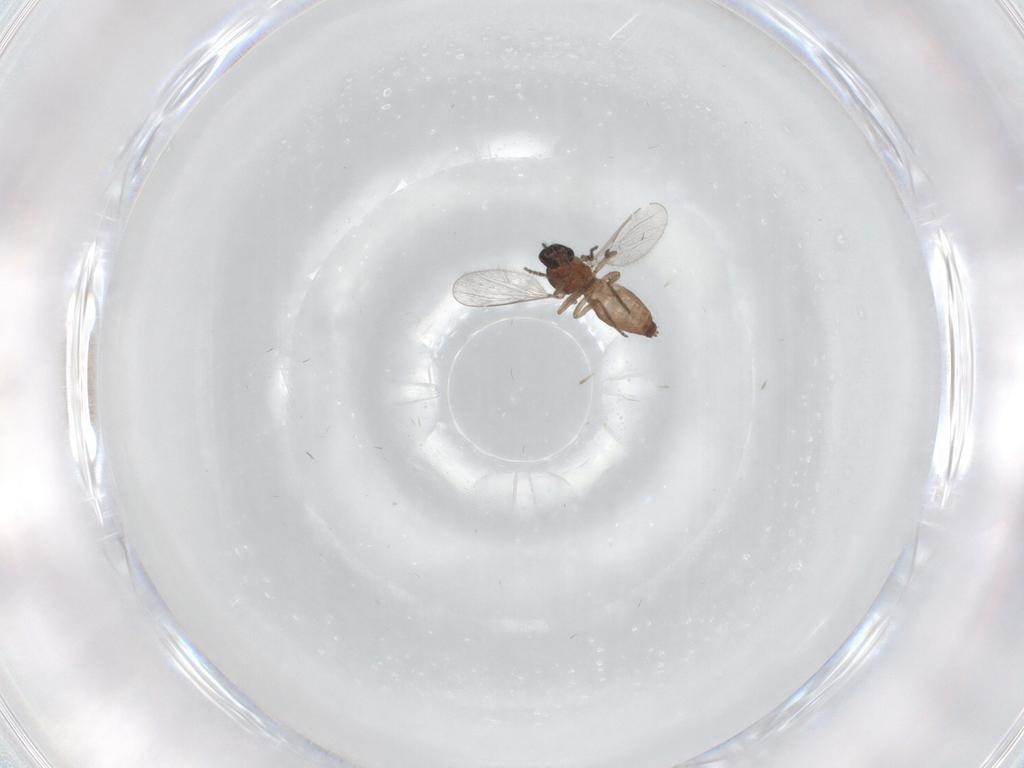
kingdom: Animalia
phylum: Arthropoda
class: Insecta
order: Diptera
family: Ceratopogonidae
